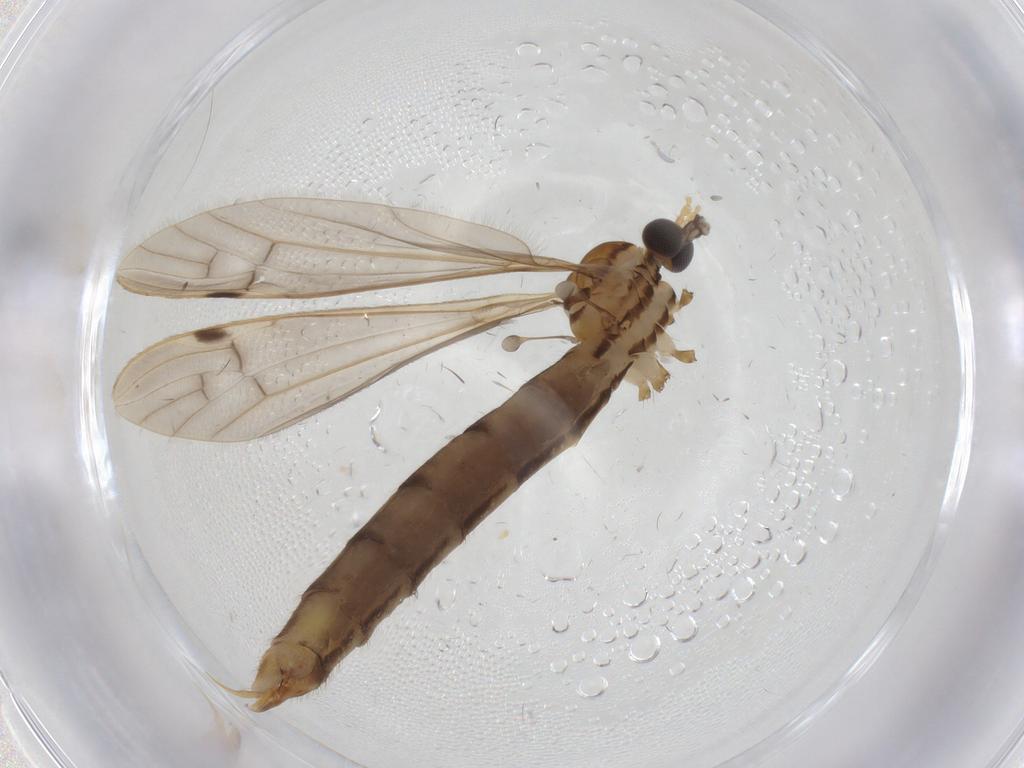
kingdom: Animalia
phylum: Arthropoda
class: Insecta
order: Diptera
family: Limoniidae
